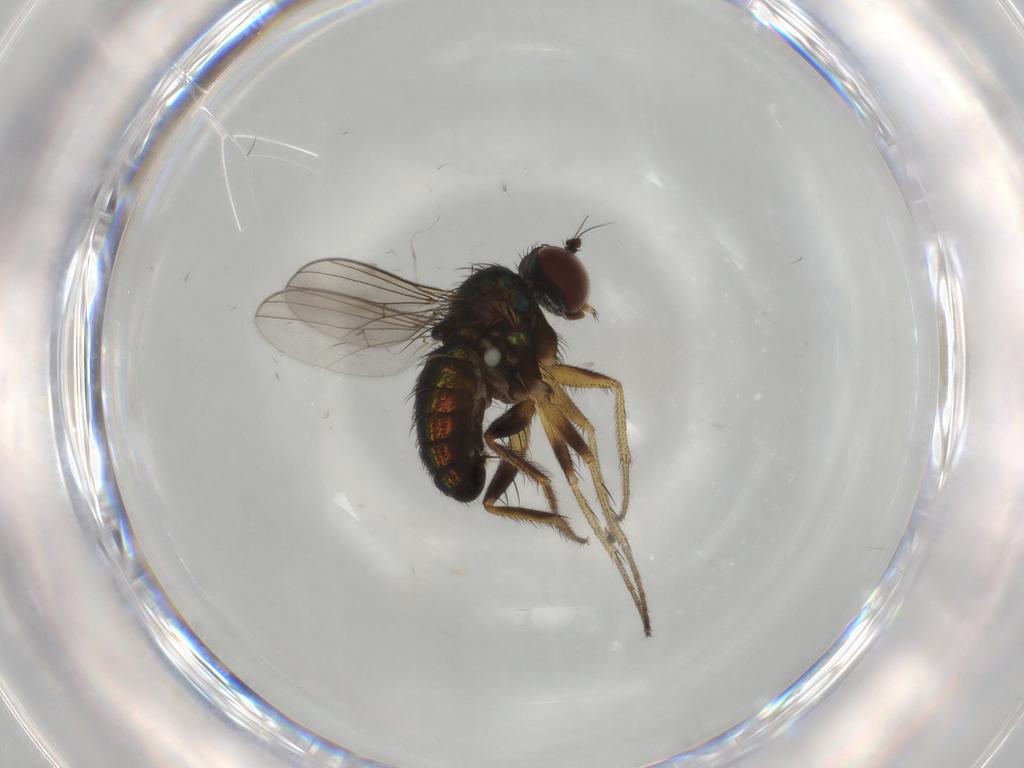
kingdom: Animalia
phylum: Arthropoda
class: Insecta
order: Diptera
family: Dolichopodidae
